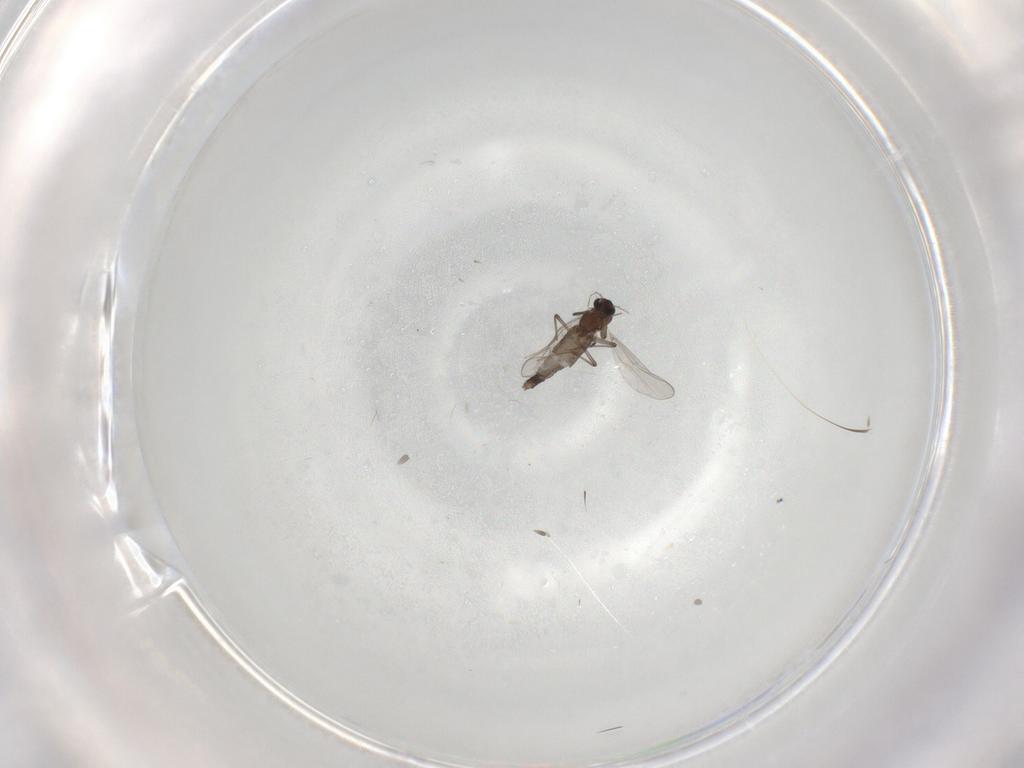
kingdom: Animalia
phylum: Arthropoda
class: Insecta
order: Diptera
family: Chironomidae
